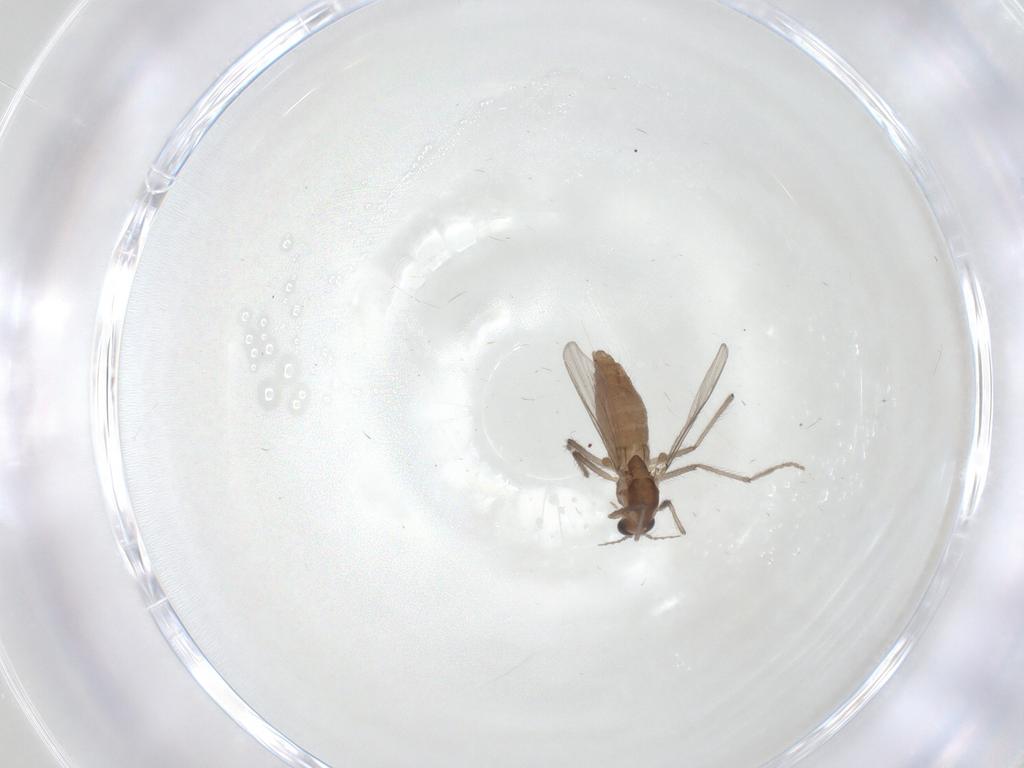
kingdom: Animalia
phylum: Arthropoda
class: Insecta
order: Diptera
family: Chironomidae
